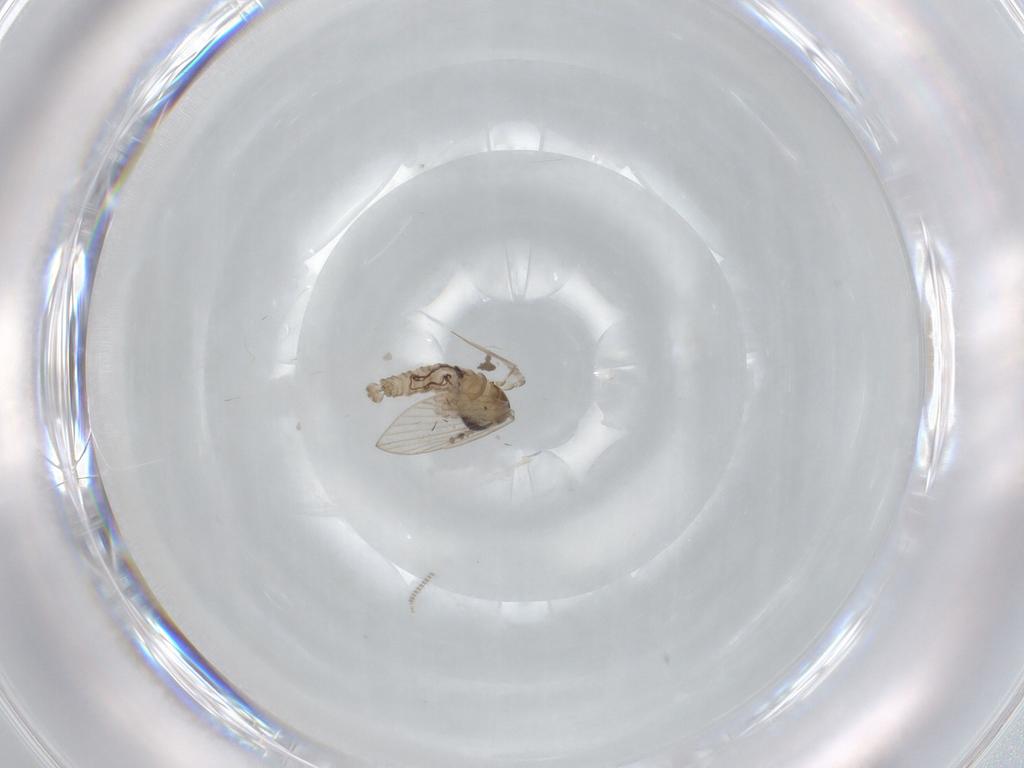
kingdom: Animalia
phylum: Arthropoda
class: Insecta
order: Diptera
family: Psychodidae
